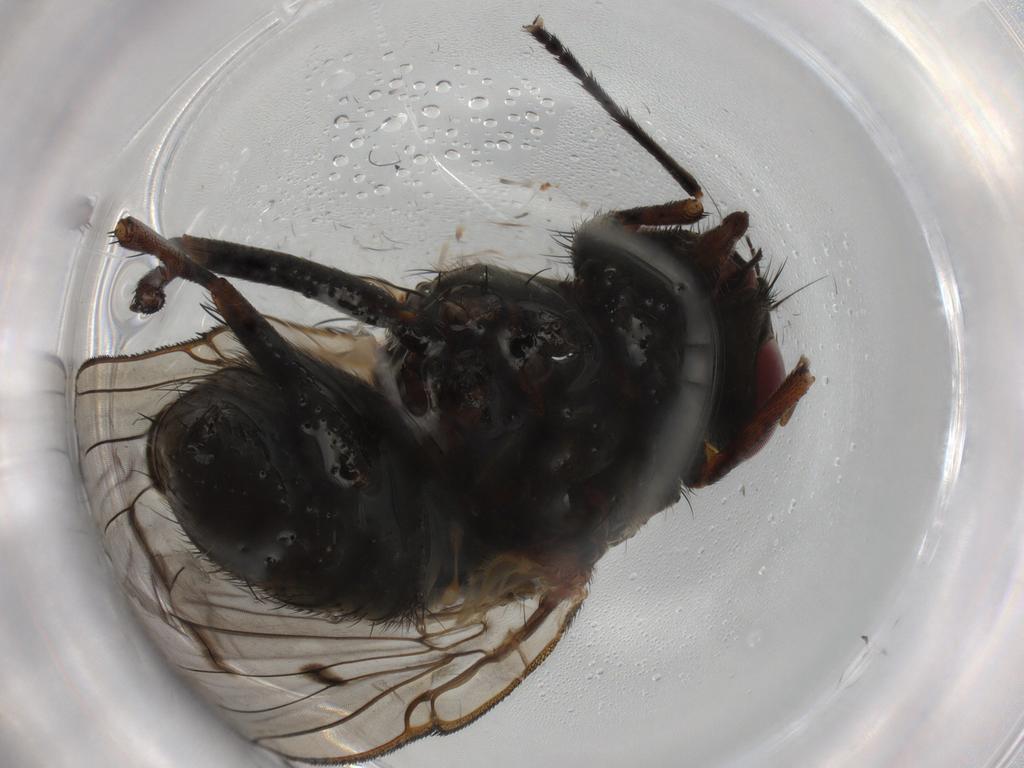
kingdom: Animalia
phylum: Arthropoda
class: Insecta
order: Diptera
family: Muscidae
